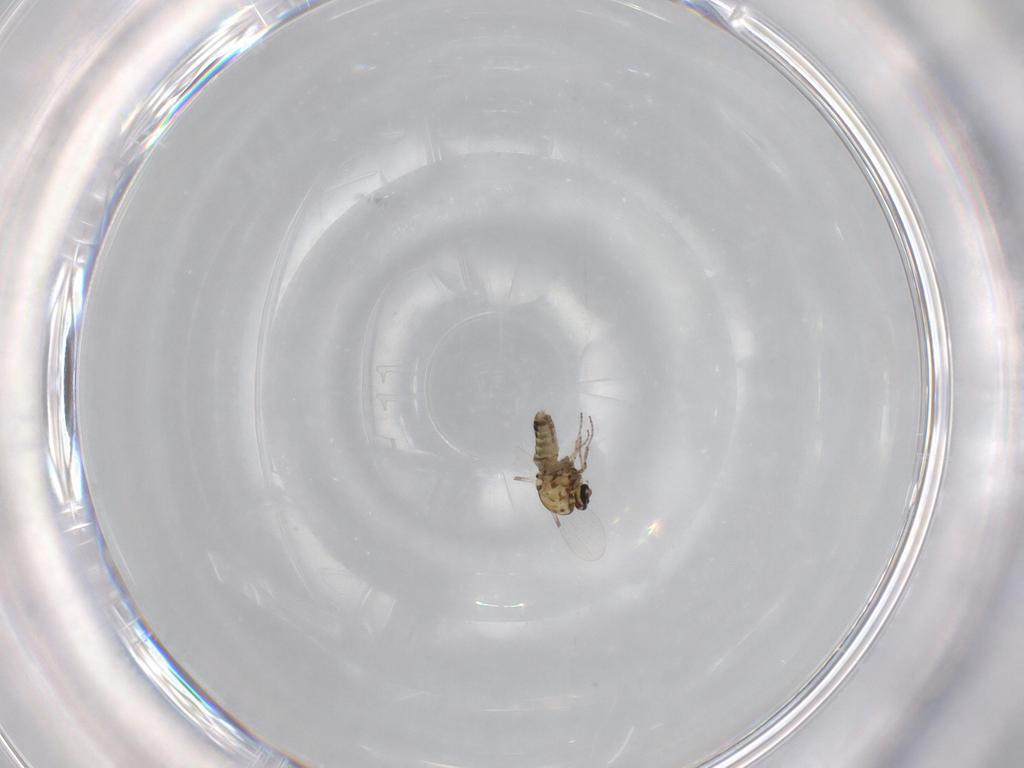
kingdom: Animalia
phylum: Arthropoda
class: Insecta
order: Diptera
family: Ceratopogonidae
